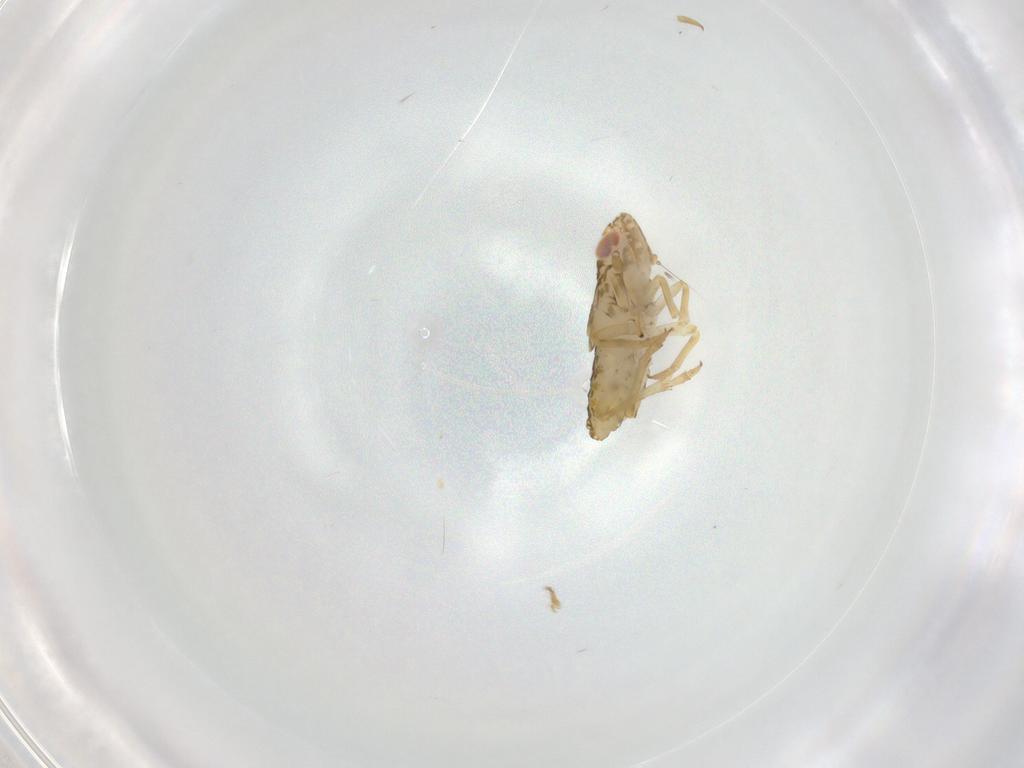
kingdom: Animalia
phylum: Arthropoda
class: Insecta
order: Hemiptera
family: Delphacidae
